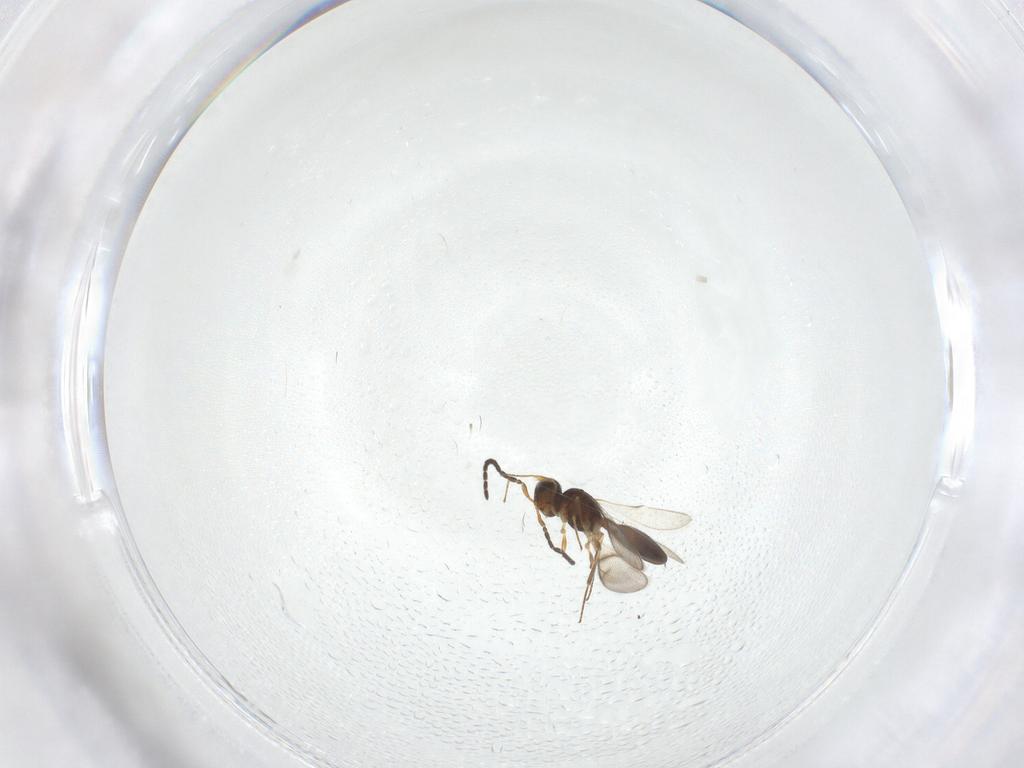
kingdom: Animalia
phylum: Arthropoda
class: Insecta
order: Hymenoptera
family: Scelionidae
